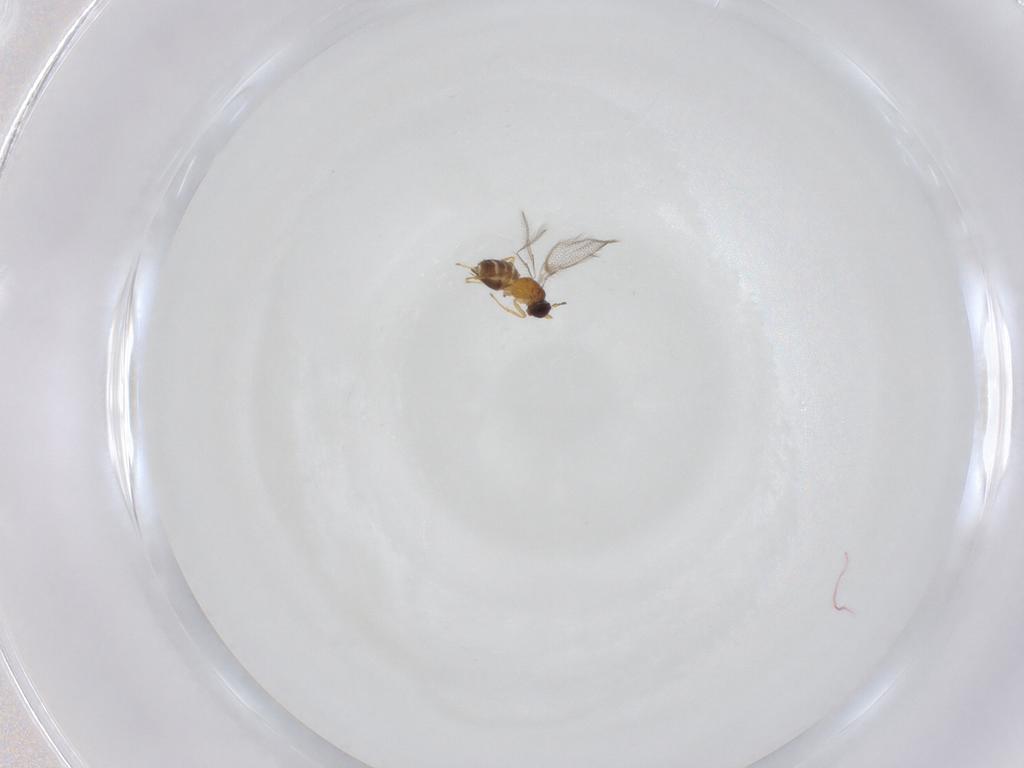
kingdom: Animalia
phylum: Arthropoda
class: Insecta
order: Hymenoptera
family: Mymaridae
